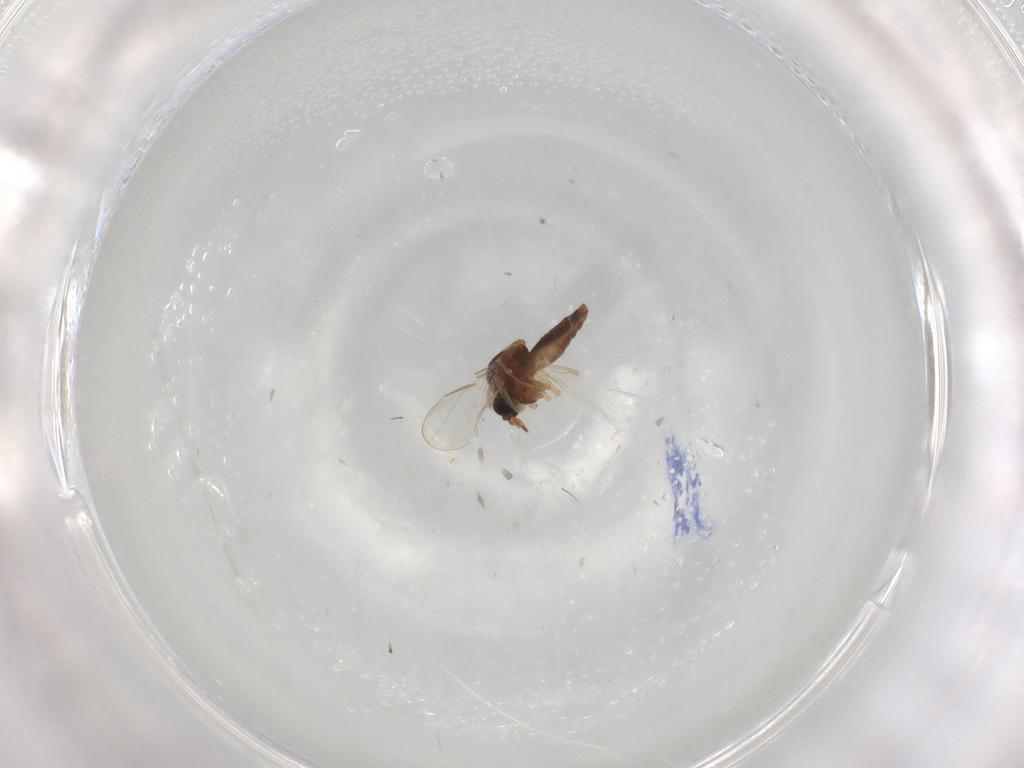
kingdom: Animalia
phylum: Arthropoda
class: Insecta
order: Diptera
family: Ceratopogonidae
